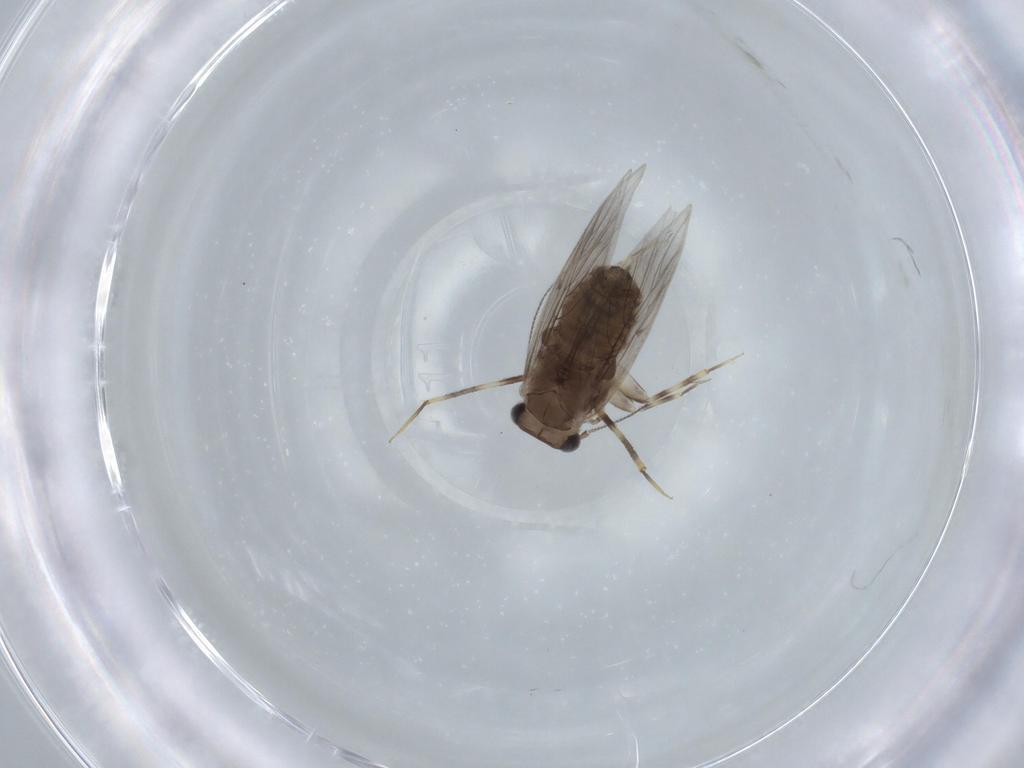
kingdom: Animalia
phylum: Arthropoda
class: Insecta
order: Psocodea
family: Lepidopsocidae
